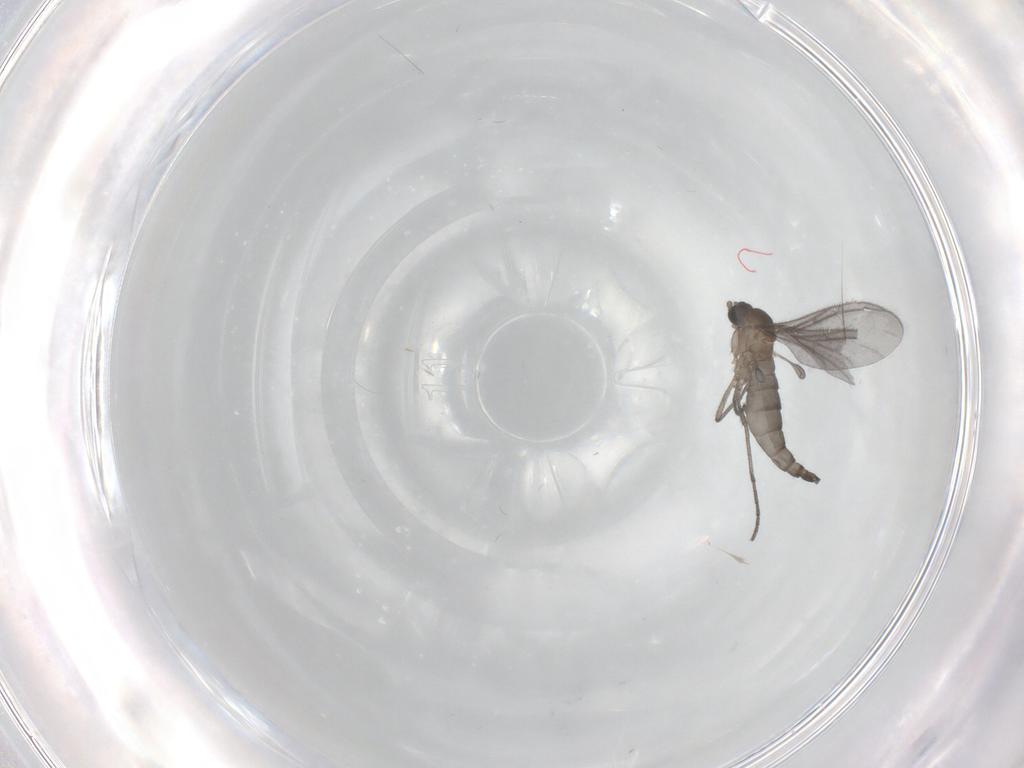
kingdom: Animalia
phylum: Arthropoda
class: Insecta
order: Diptera
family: Sciaridae
